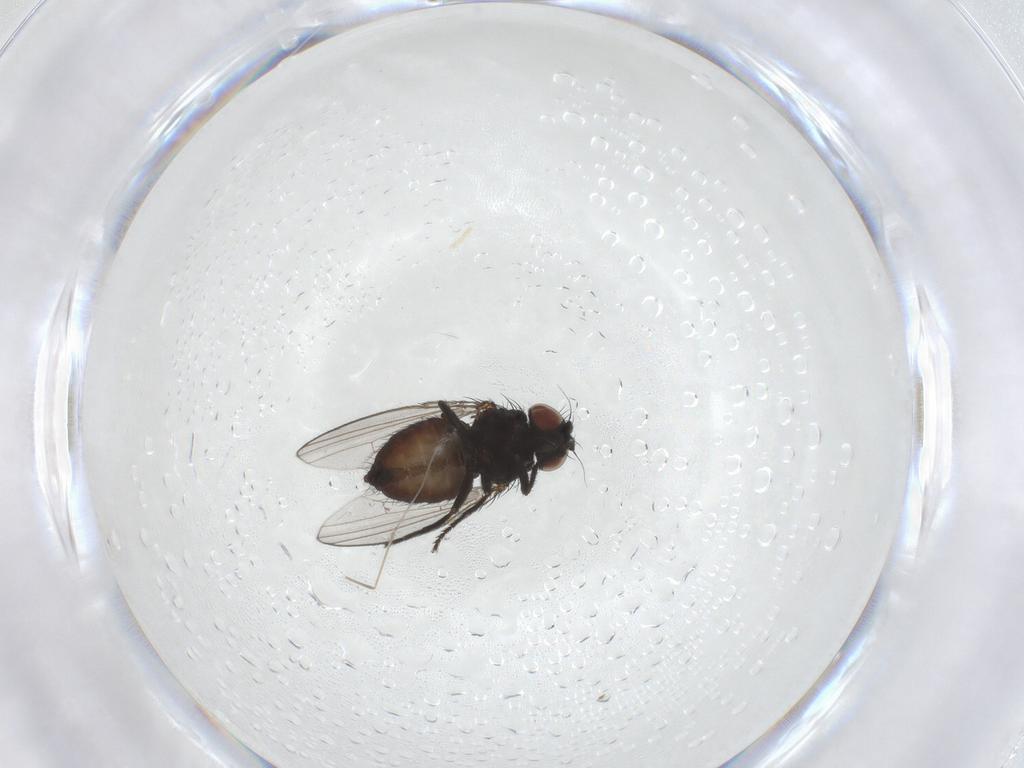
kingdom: Animalia
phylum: Arthropoda
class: Insecta
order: Diptera
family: Milichiidae
